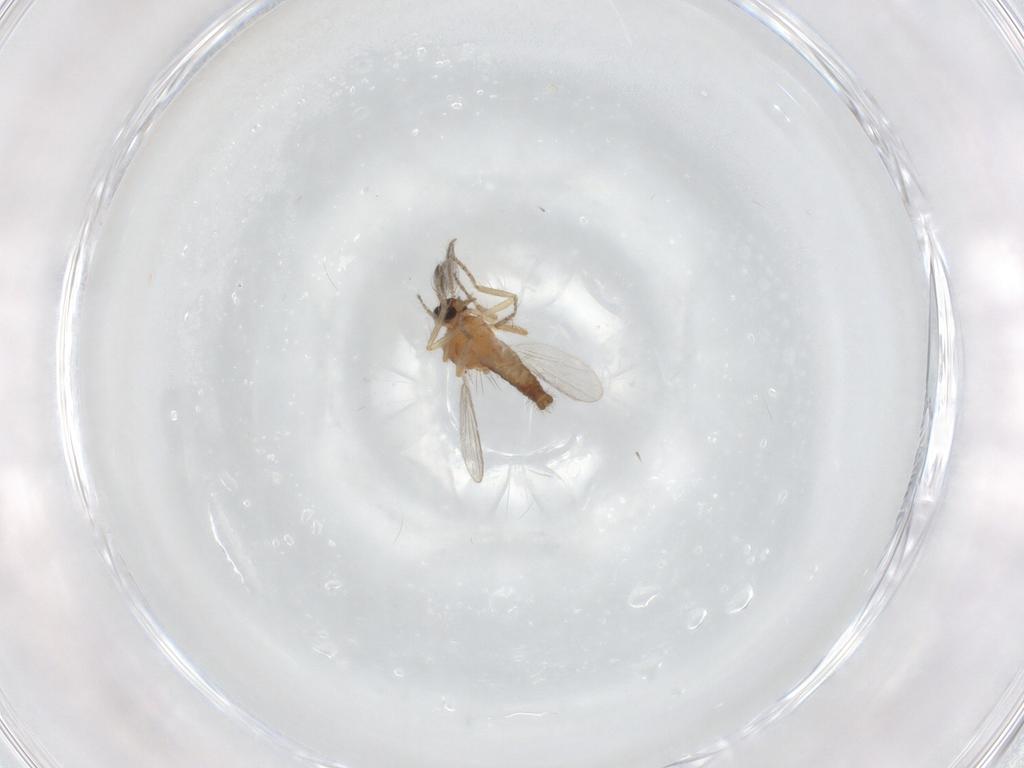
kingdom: Animalia
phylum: Arthropoda
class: Insecta
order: Diptera
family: Ceratopogonidae
